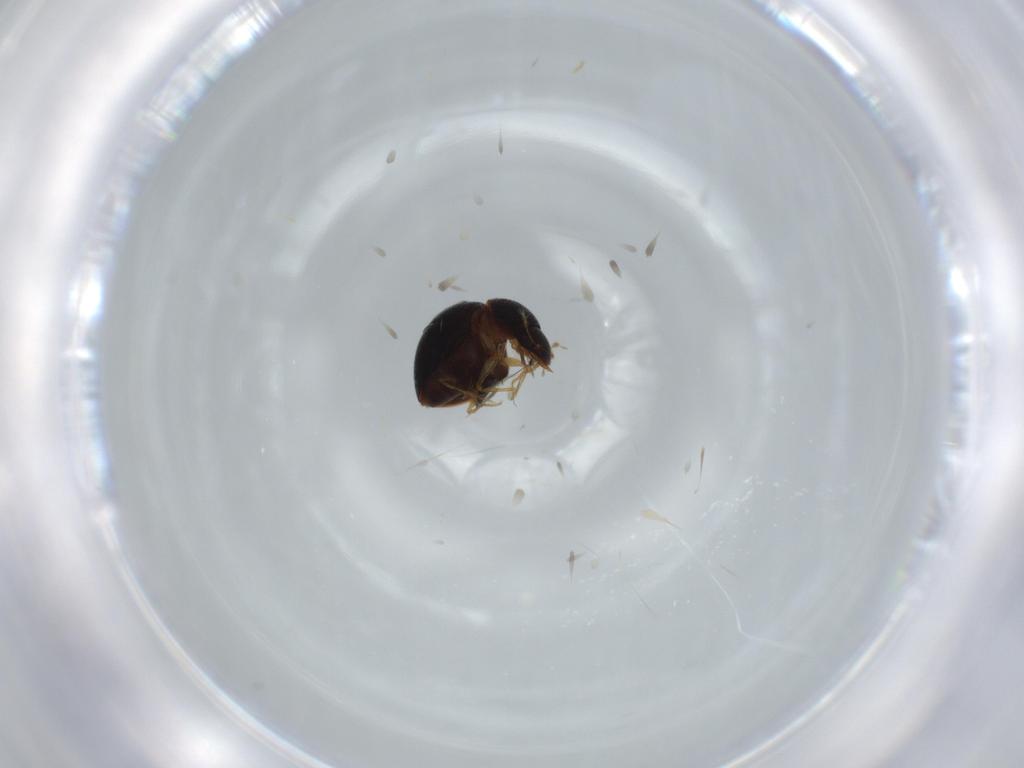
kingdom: Animalia
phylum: Arthropoda
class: Insecta
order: Coleoptera
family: Clambidae
